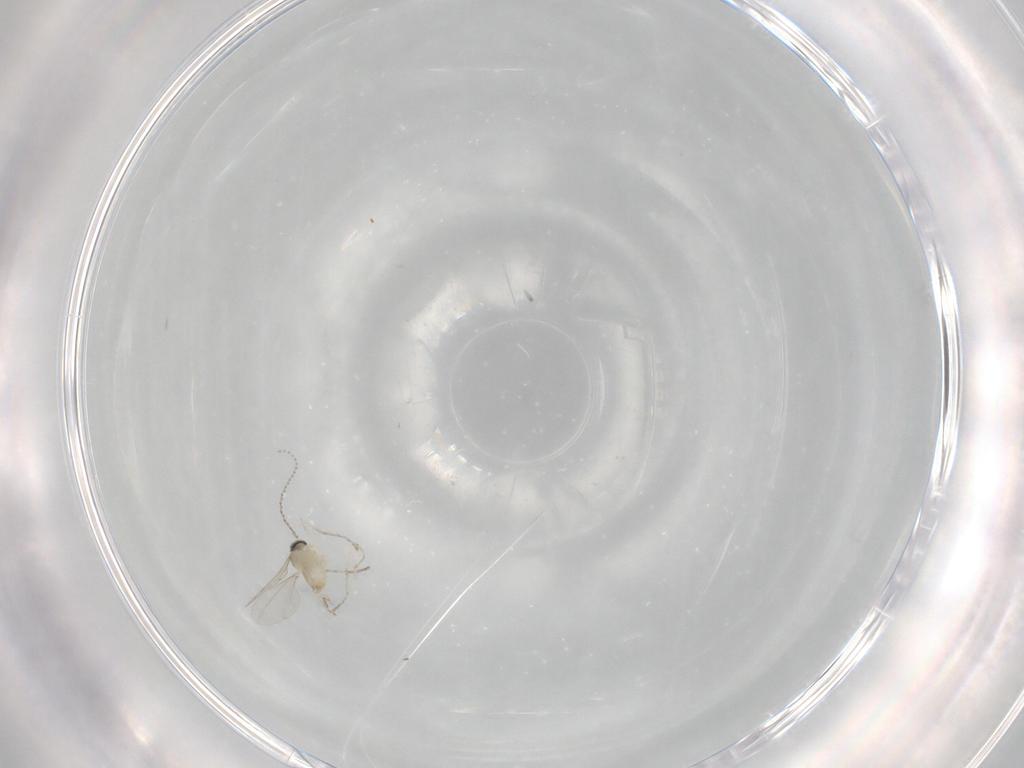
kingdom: Animalia
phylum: Arthropoda
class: Insecta
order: Diptera
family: Cecidomyiidae
